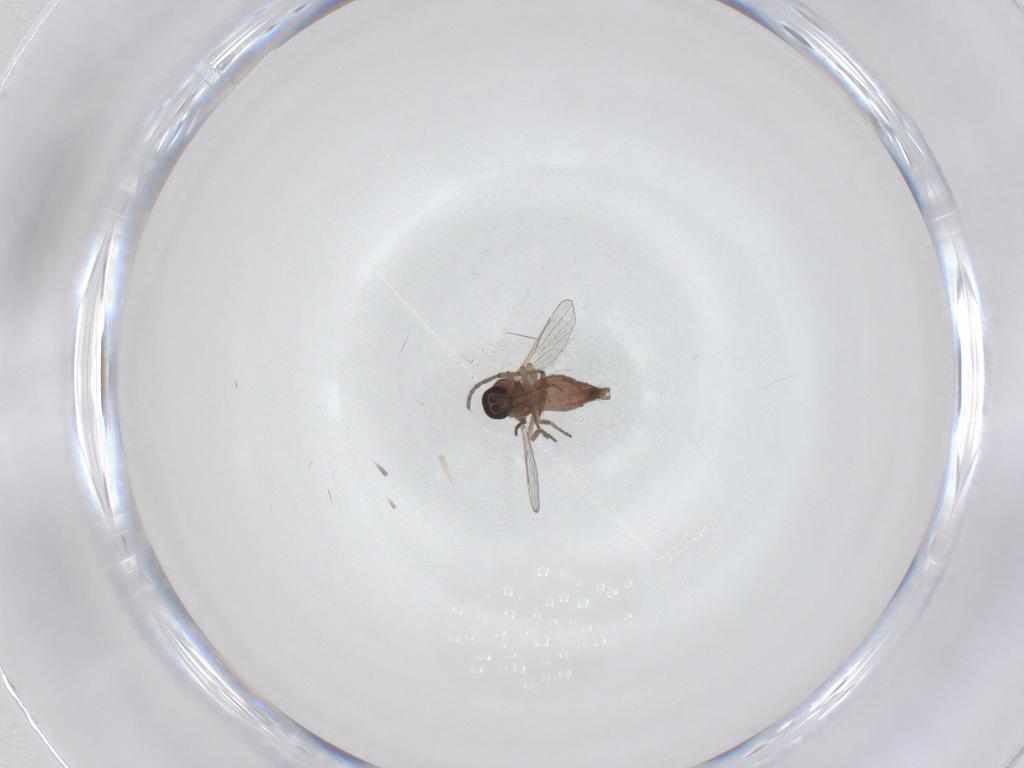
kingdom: Animalia
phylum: Arthropoda
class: Insecta
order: Diptera
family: Ceratopogonidae
